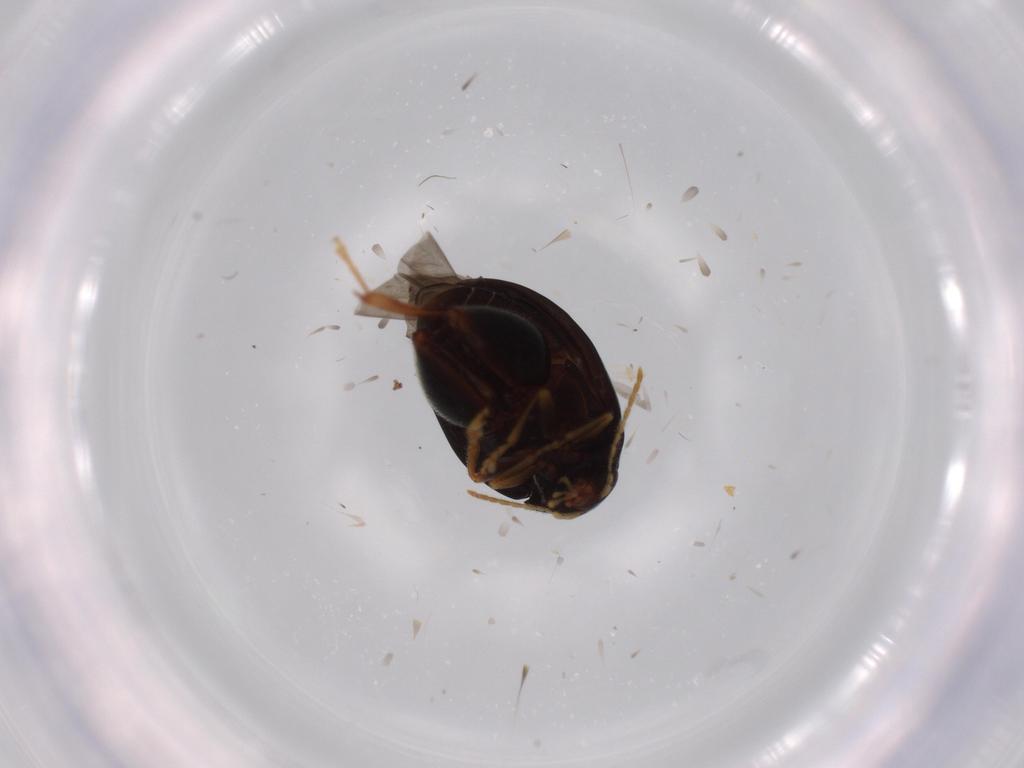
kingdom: Animalia
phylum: Arthropoda
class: Insecta
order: Coleoptera
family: Chrysomelidae
